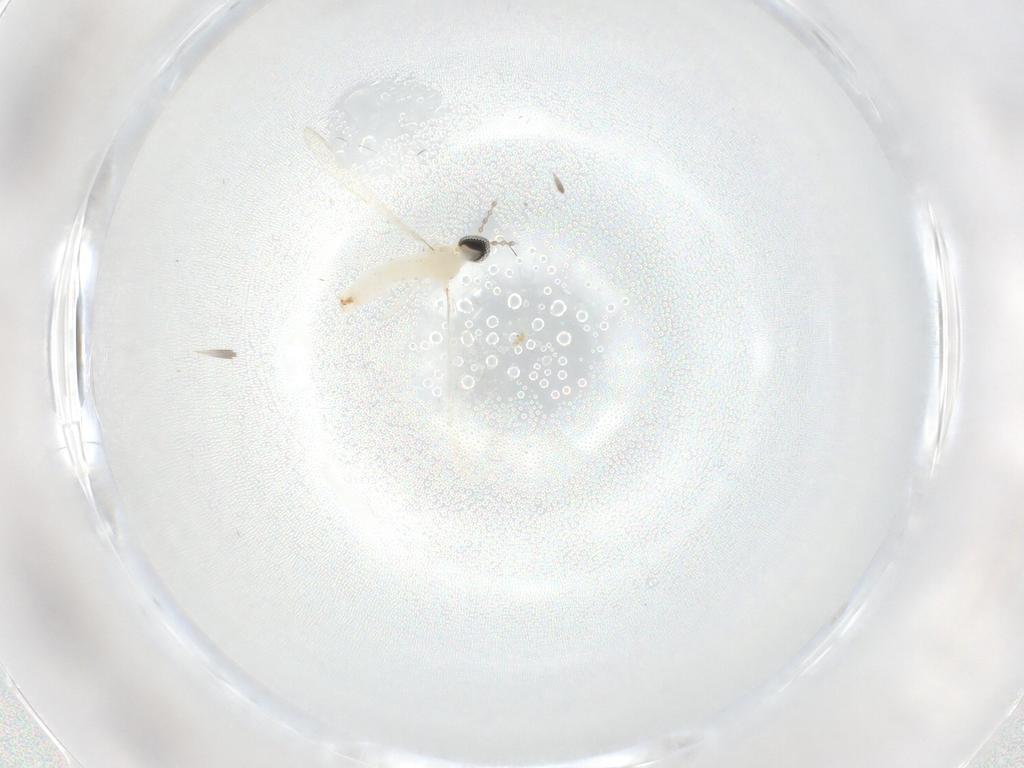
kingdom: Animalia
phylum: Arthropoda
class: Insecta
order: Diptera
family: Cecidomyiidae
